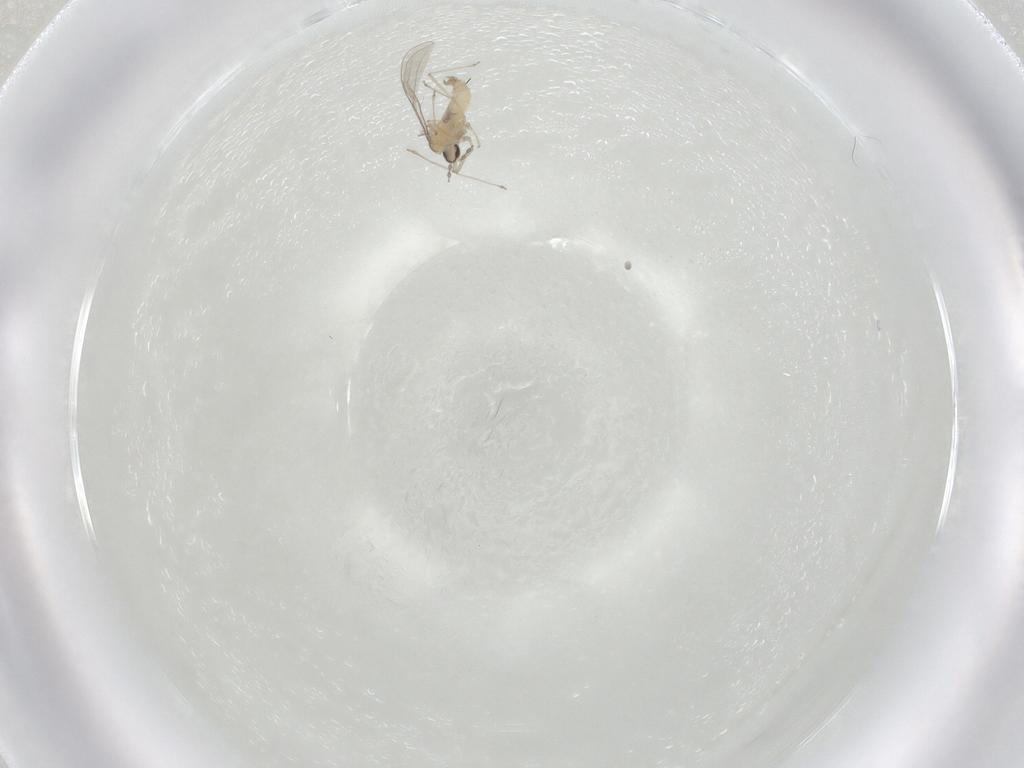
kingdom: Animalia
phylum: Arthropoda
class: Insecta
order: Diptera
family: Cecidomyiidae
